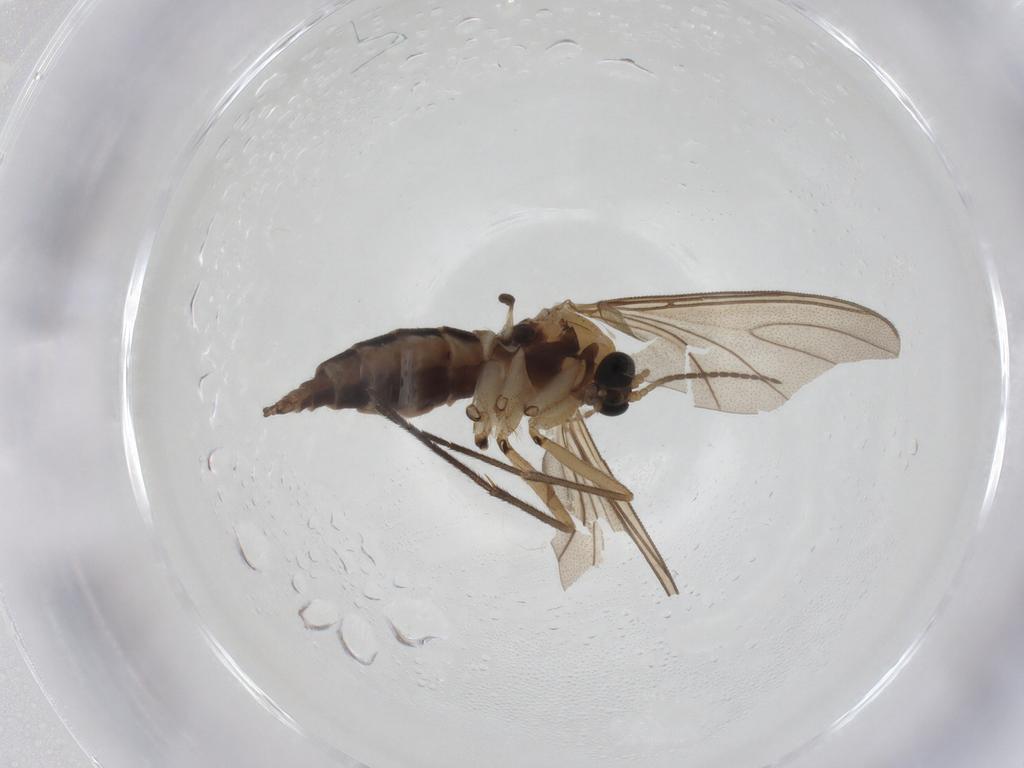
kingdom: Animalia
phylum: Arthropoda
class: Insecta
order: Diptera
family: Sciaridae
